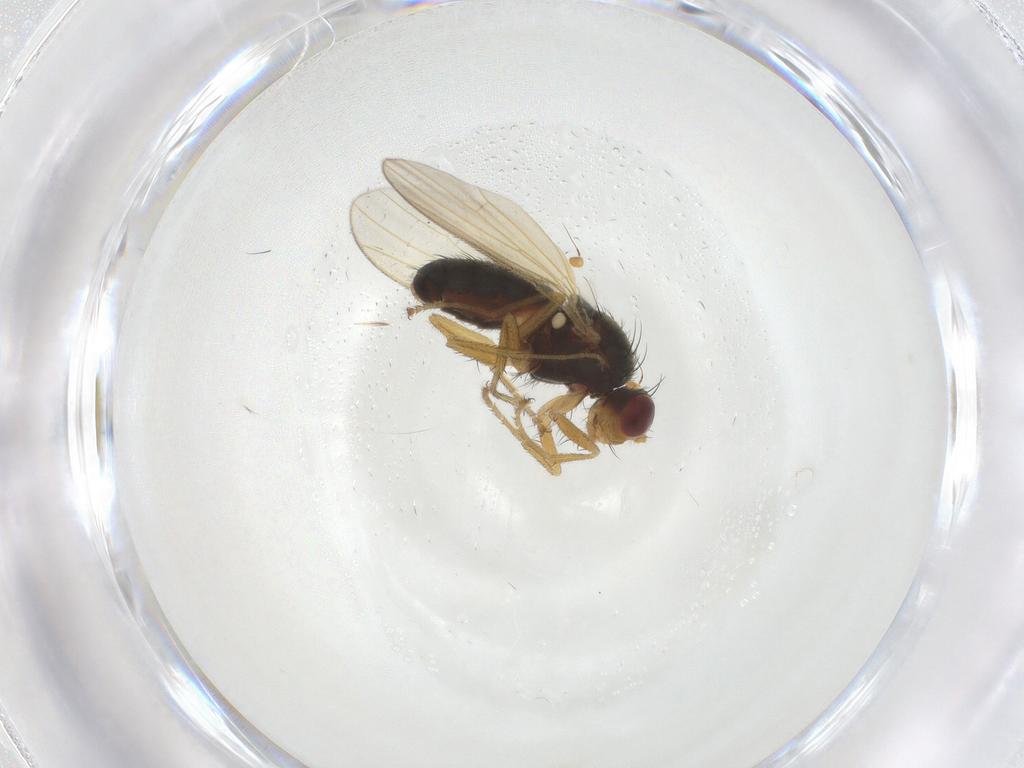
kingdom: Animalia
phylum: Arthropoda
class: Insecta
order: Diptera
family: Heleomyzidae
